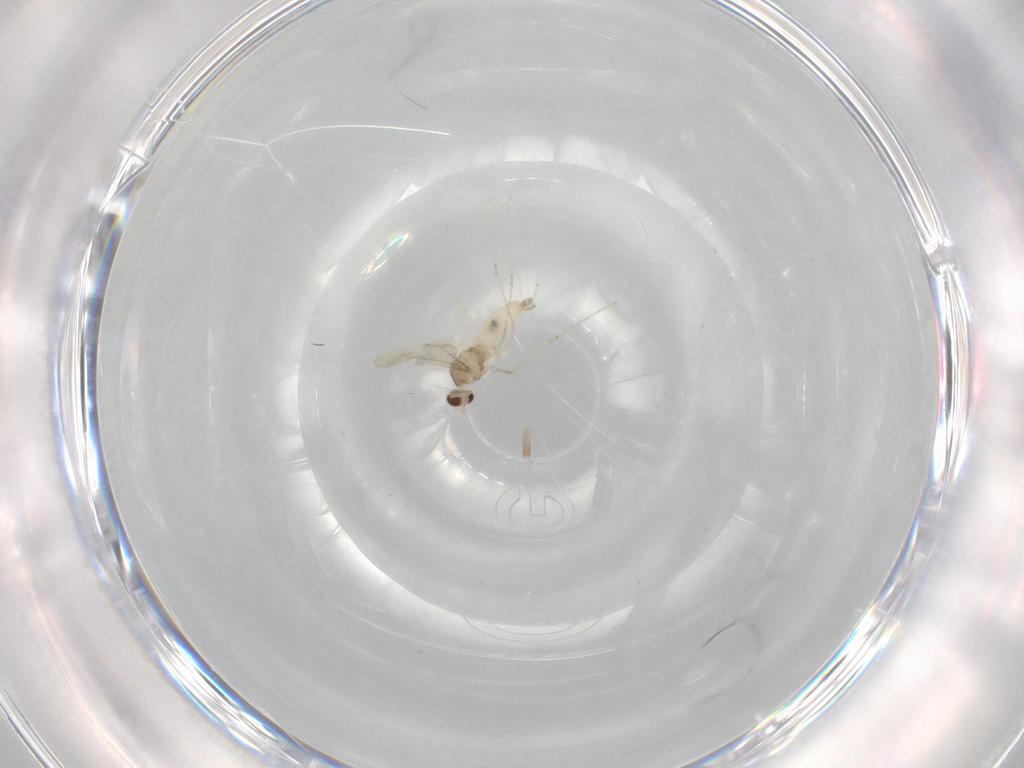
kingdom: Animalia
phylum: Arthropoda
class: Insecta
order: Diptera
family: Cecidomyiidae
